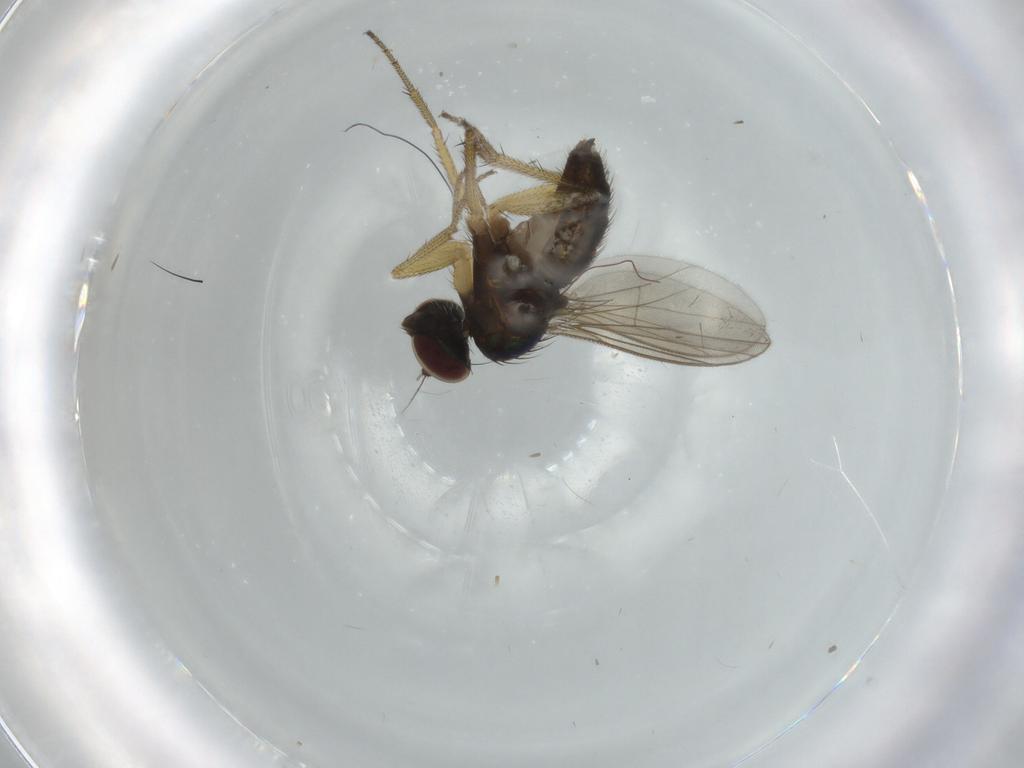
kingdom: Animalia
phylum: Arthropoda
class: Insecta
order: Diptera
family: Dolichopodidae
